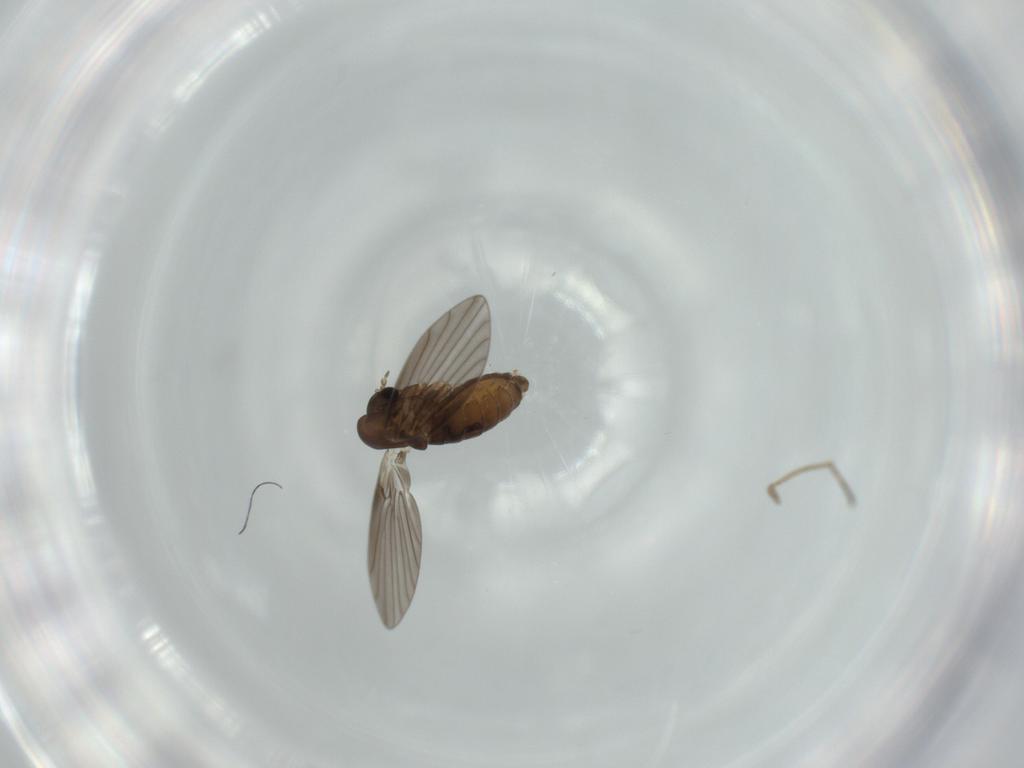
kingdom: Animalia
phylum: Arthropoda
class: Insecta
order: Diptera
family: Psychodidae
